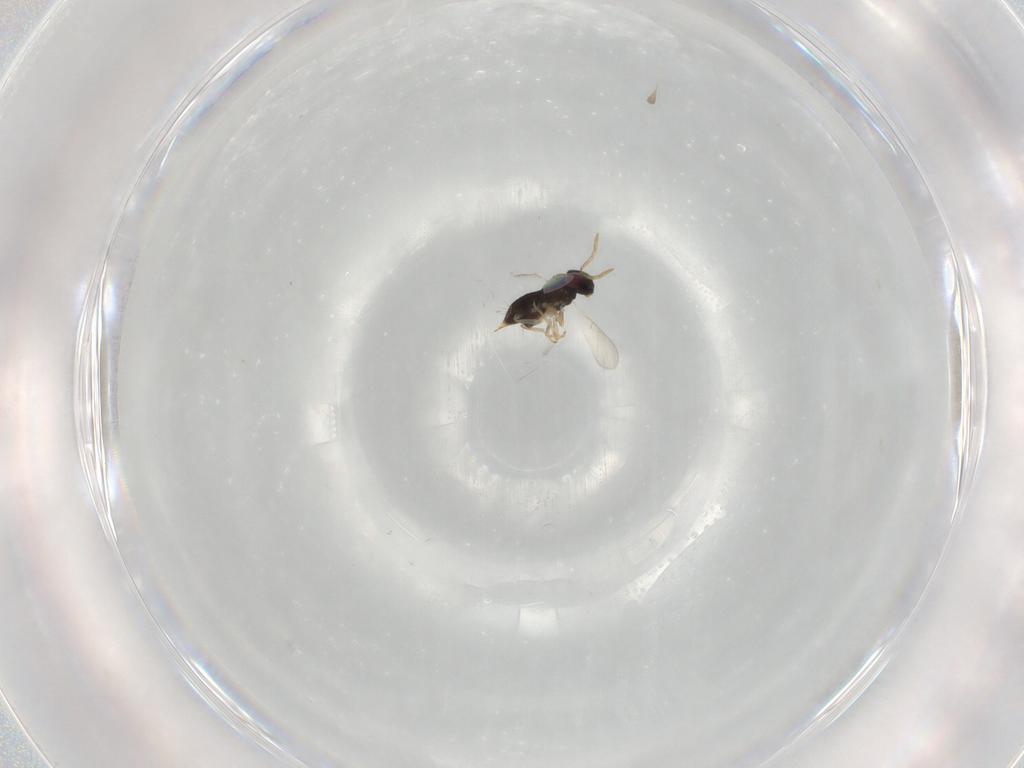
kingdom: Animalia
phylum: Arthropoda
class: Insecta
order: Hymenoptera
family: Aphelinidae
